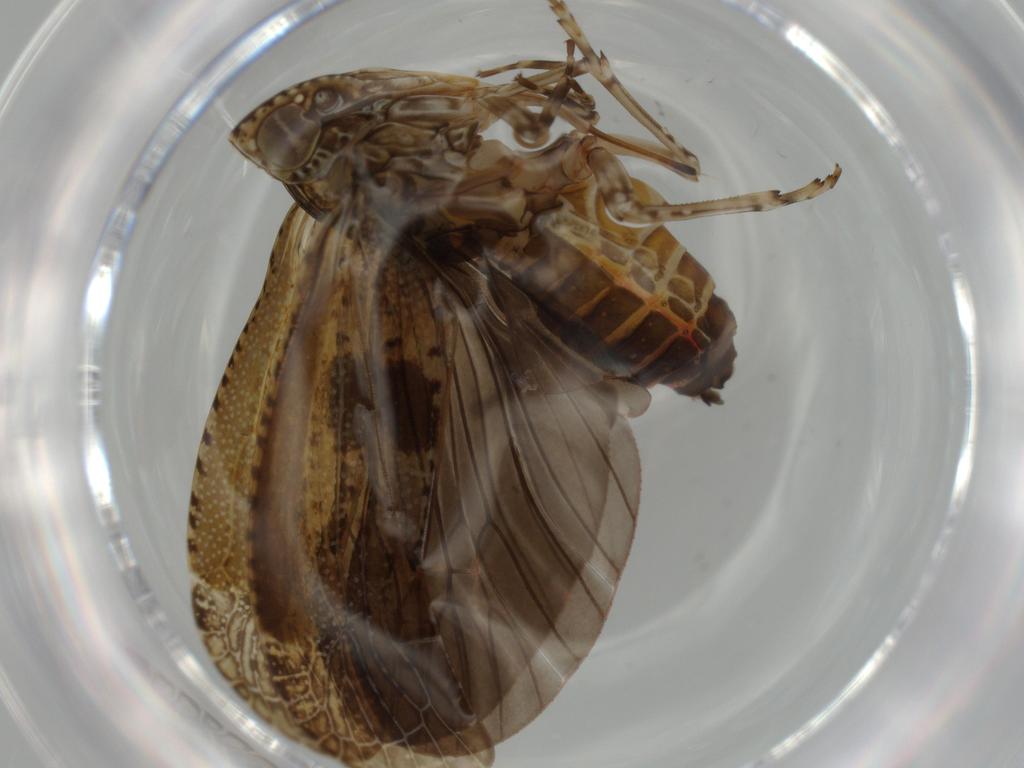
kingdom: Animalia
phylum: Arthropoda
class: Insecta
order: Hemiptera
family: Achilidae
